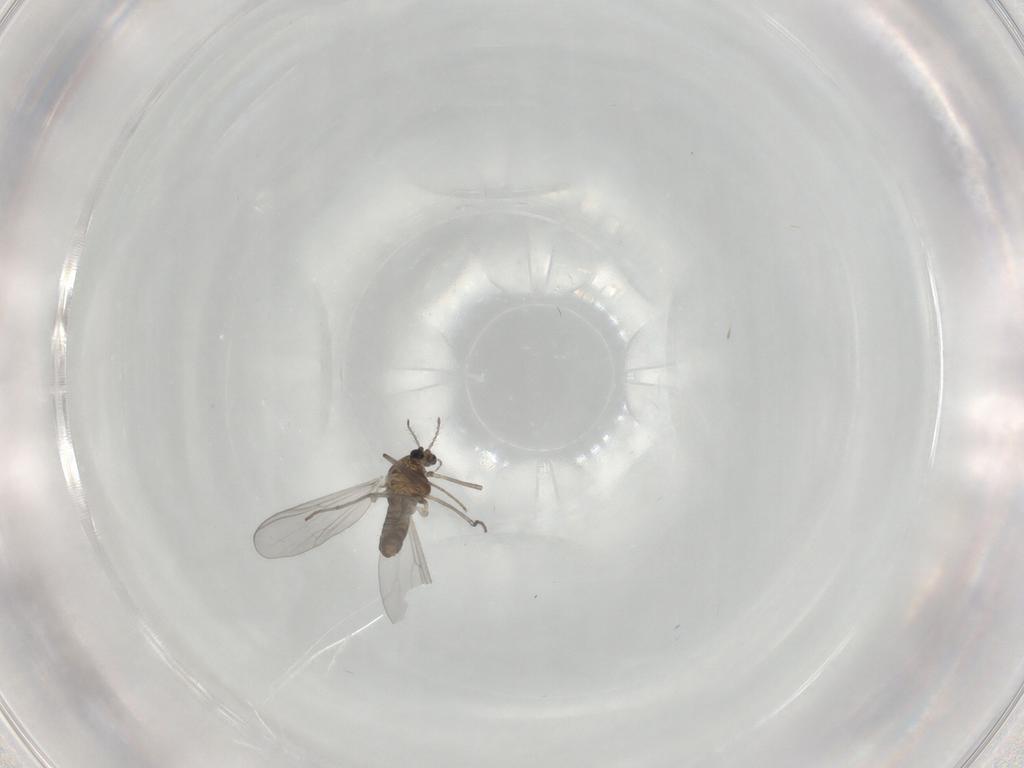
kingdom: Animalia
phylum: Arthropoda
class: Insecta
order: Diptera
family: Chironomidae
